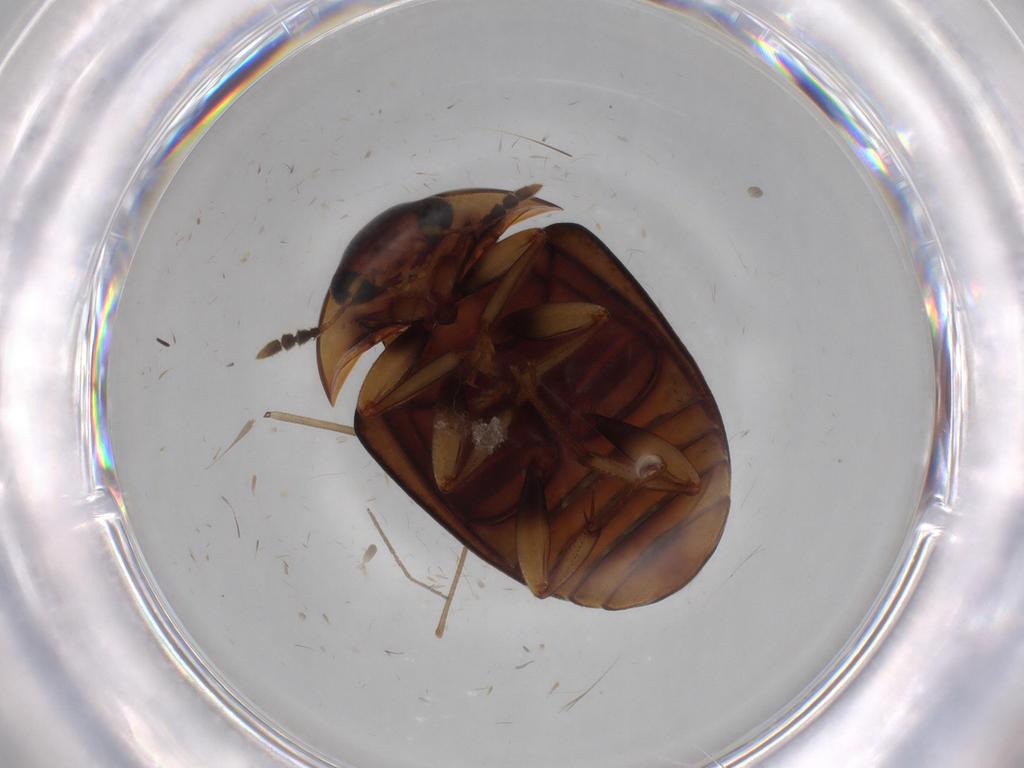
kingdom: Animalia
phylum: Arthropoda
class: Insecta
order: Coleoptera
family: Nitidulidae
